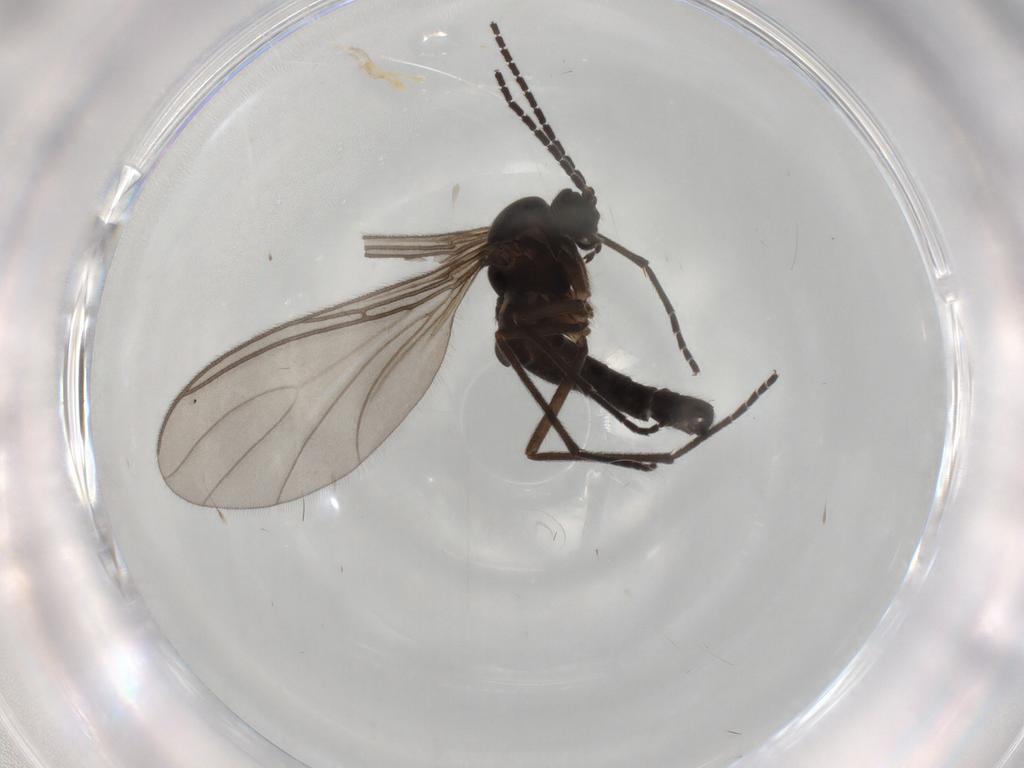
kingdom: Animalia
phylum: Arthropoda
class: Insecta
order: Diptera
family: Sciaridae
